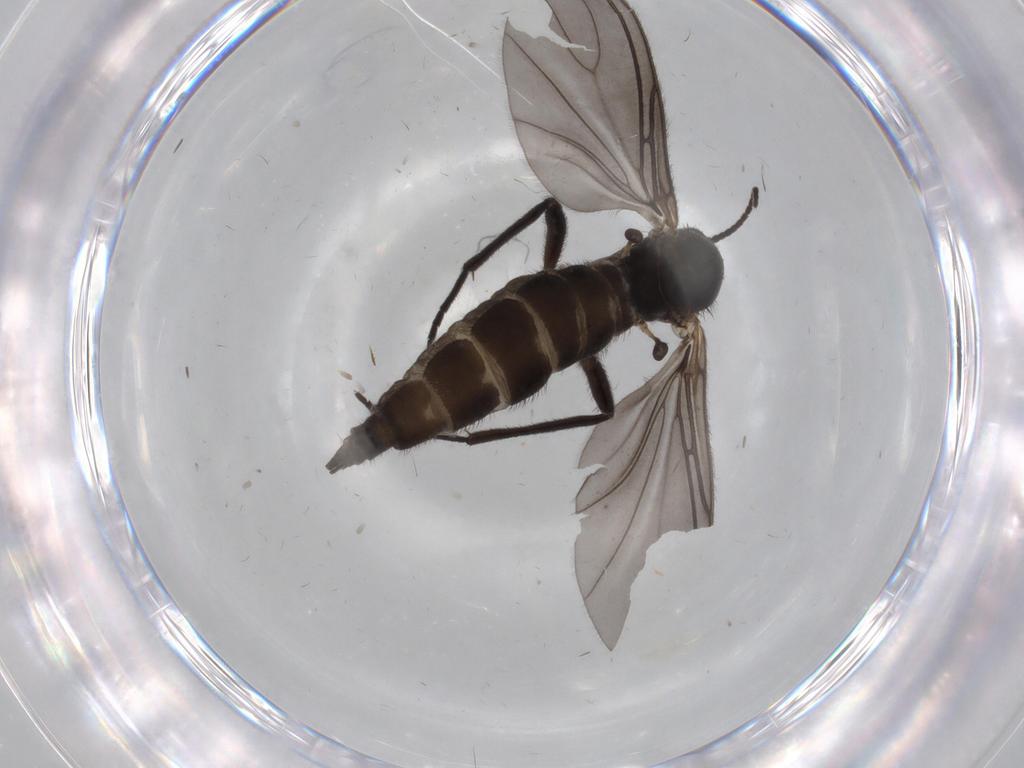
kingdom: Animalia
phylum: Arthropoda
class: Insecta
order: Diptera
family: Sciaridae
